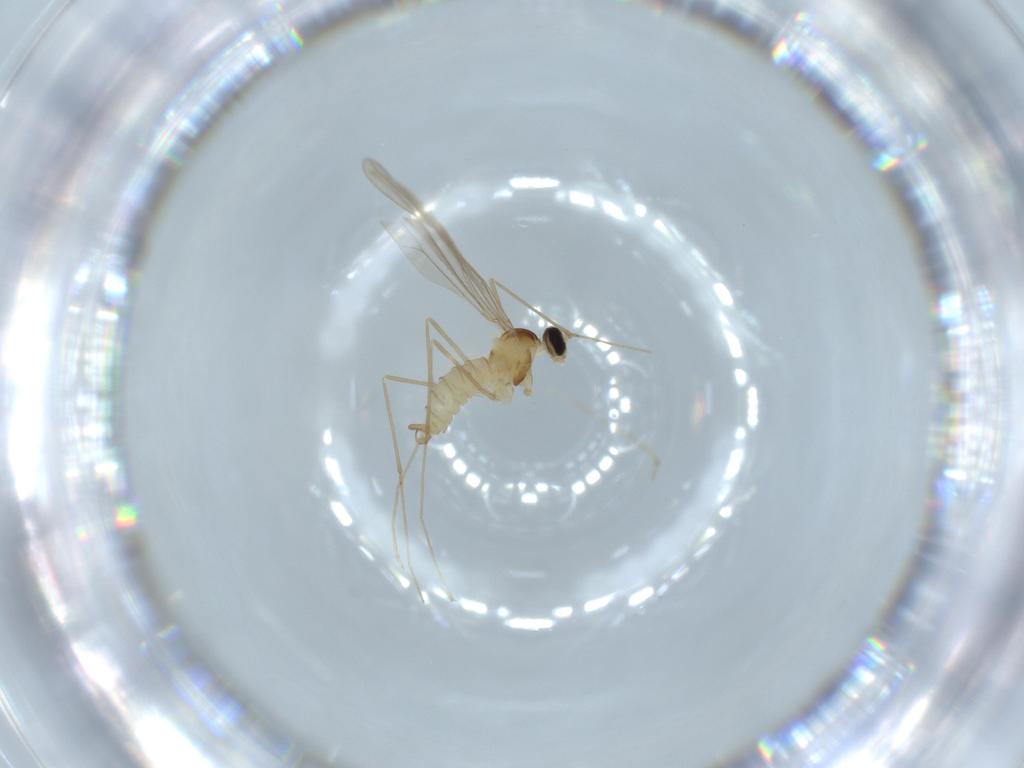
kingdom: Animalia
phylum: Arthropoda
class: Insecta
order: Diptera
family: Cecidomyiidae
